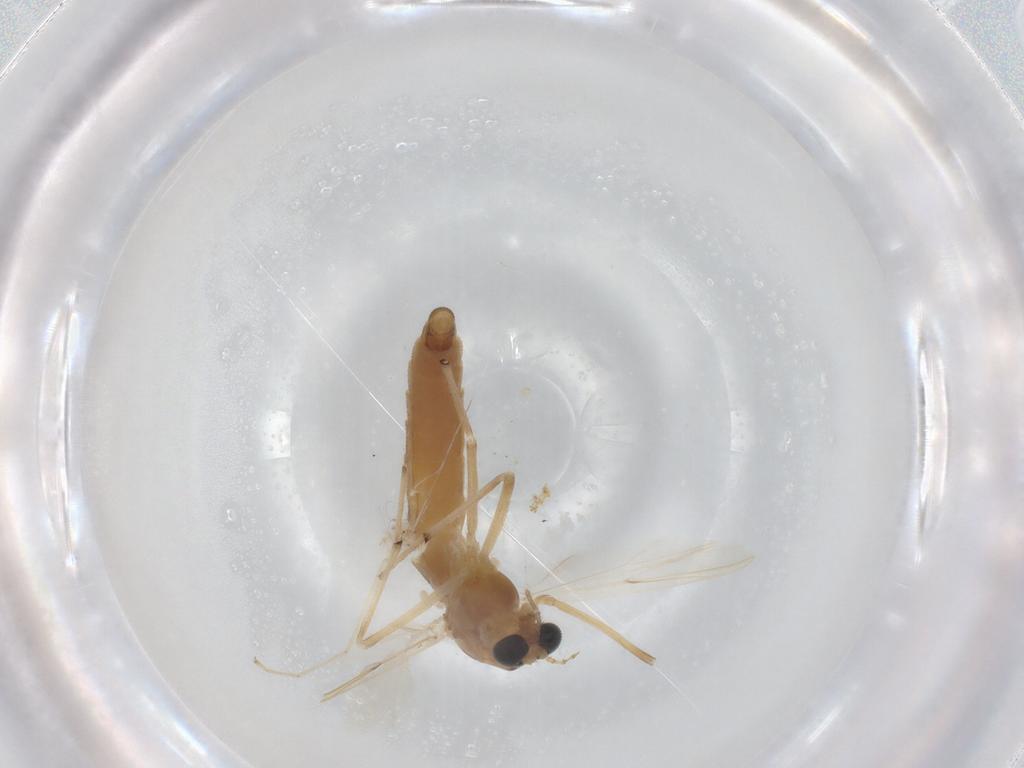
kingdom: Animalia
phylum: Arthropoda
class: Insecta
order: Diptera
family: Chironomidae
